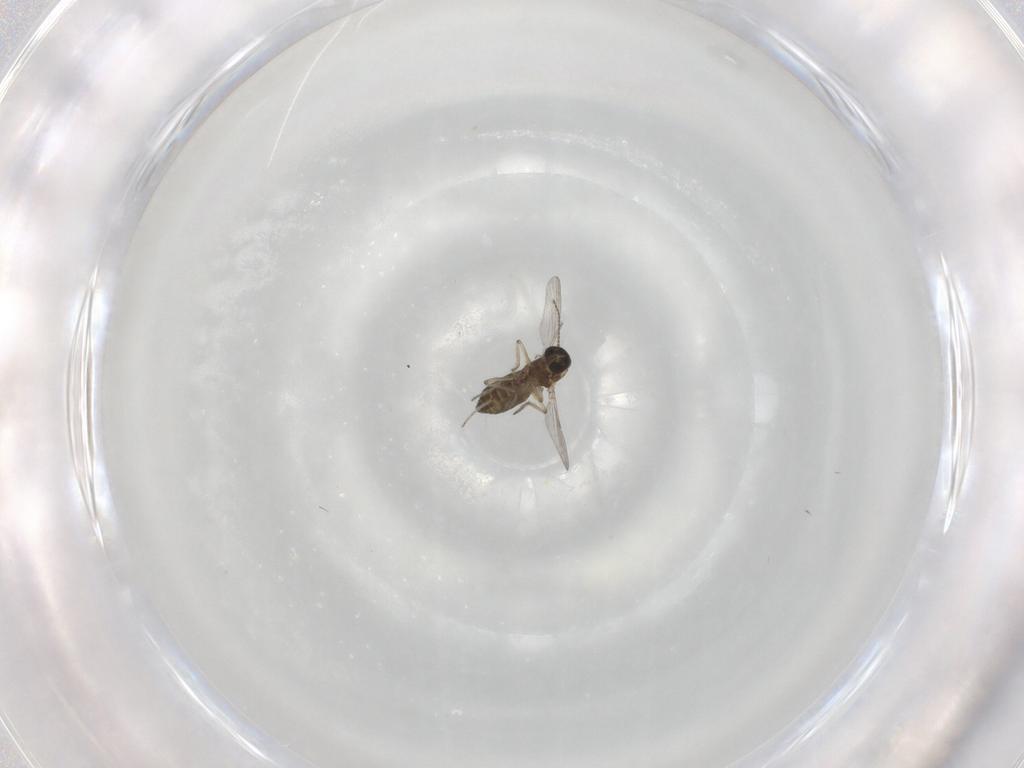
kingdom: Animalia
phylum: Arthropoda
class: Insecta
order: Diptera
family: Ceratopogonidae
